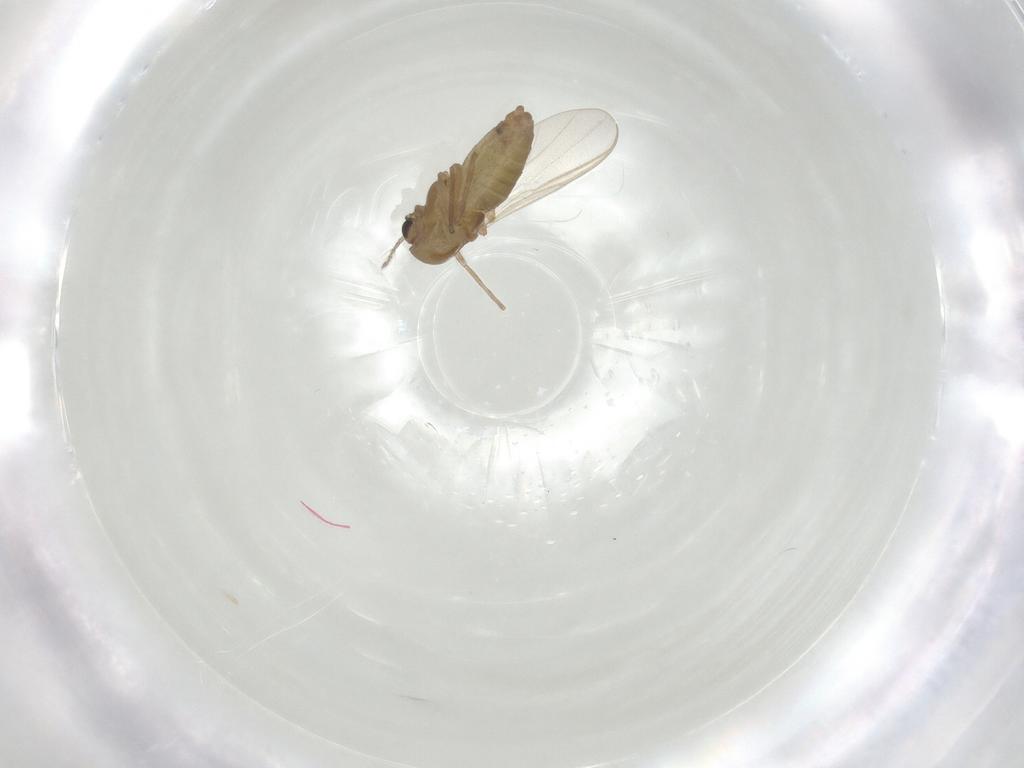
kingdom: Animalia
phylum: Arthropoda
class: Insecta
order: Diptera
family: Chironomidae
